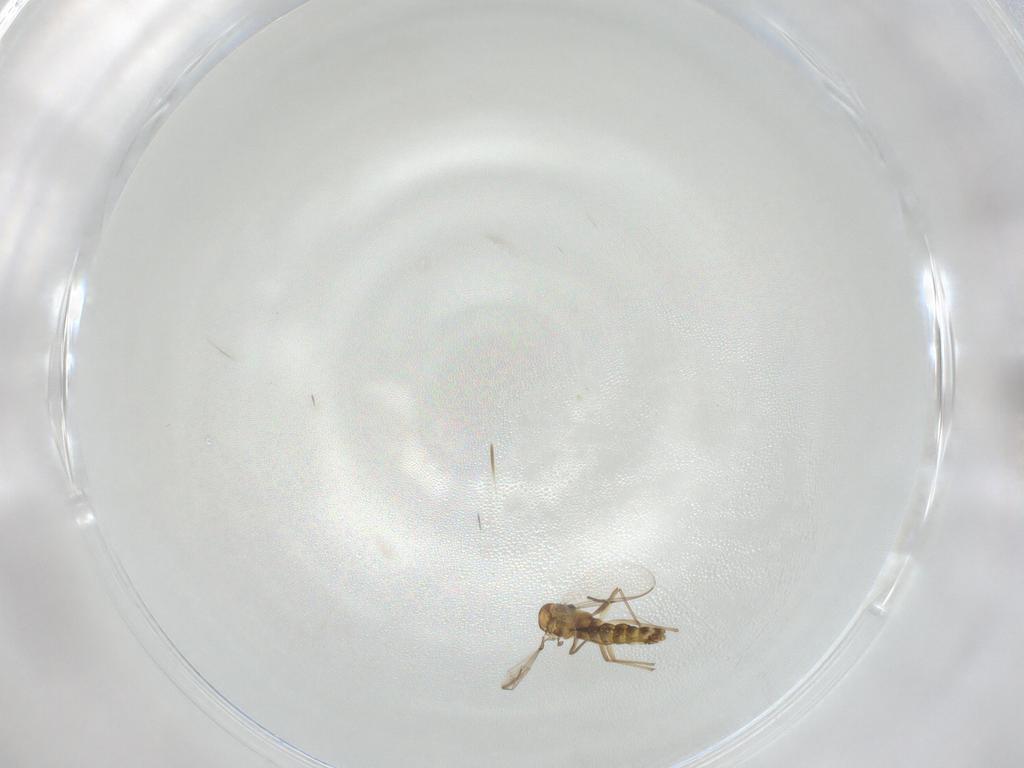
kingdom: Animalia
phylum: Arthropoda
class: Insecta
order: Diptera
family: Chironomidae
